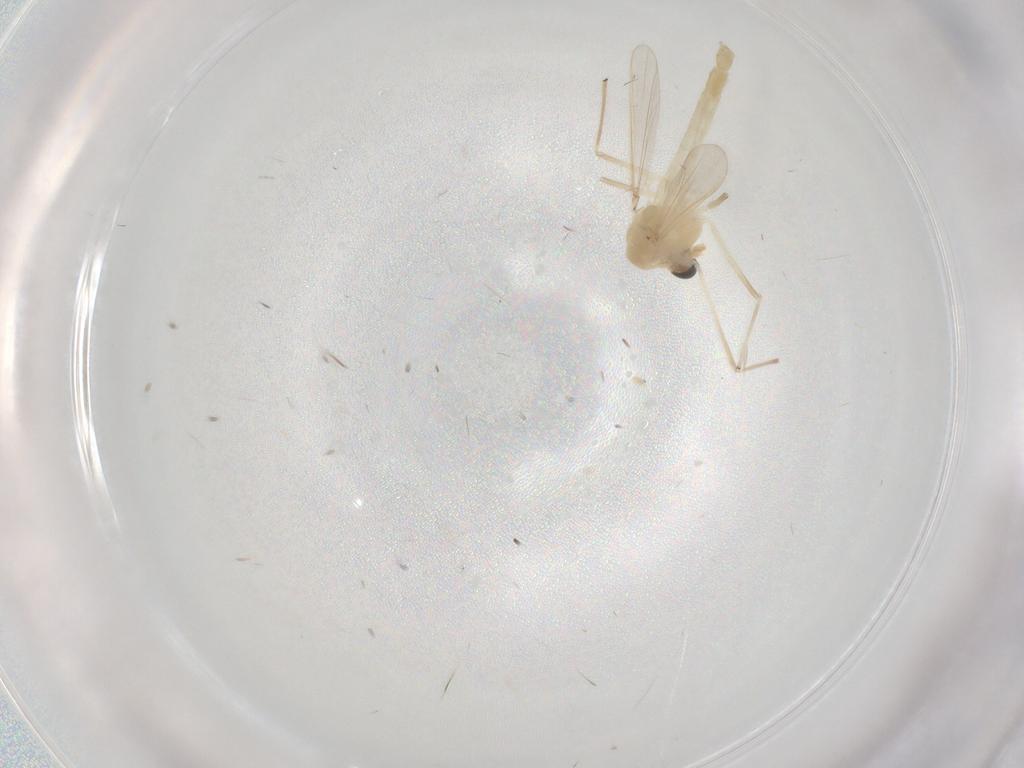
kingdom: Animalia
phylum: Arthropoda
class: Insecta
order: Diptera
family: Chironomidae
